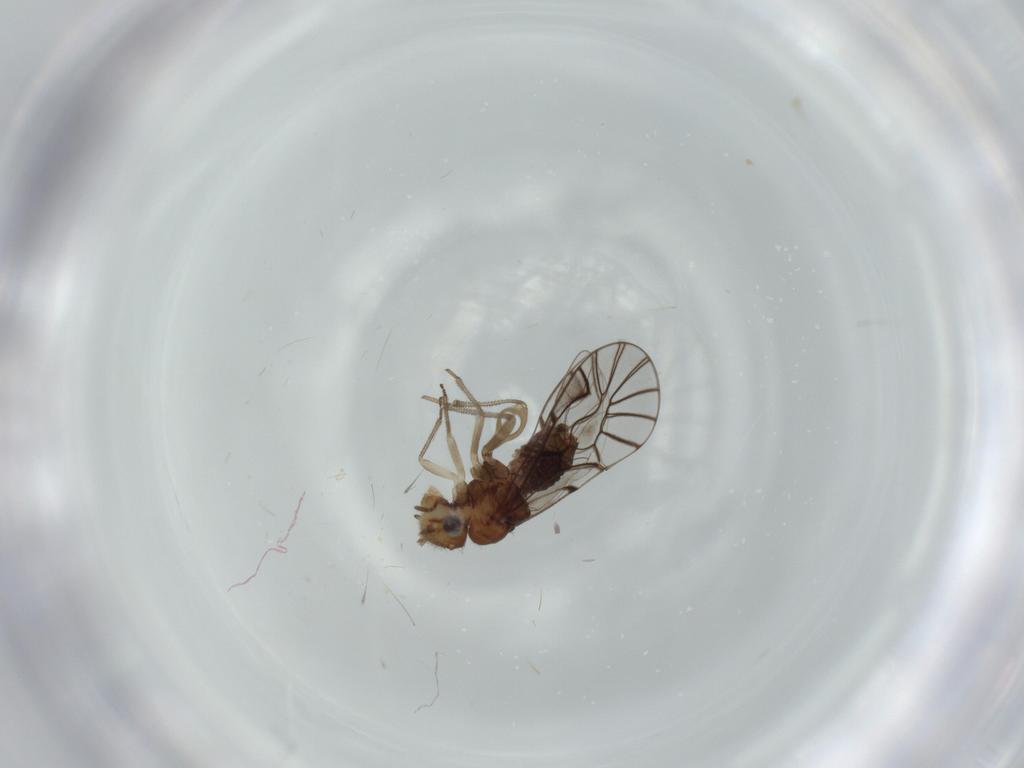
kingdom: Animalia
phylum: Arthropoda
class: Insecta
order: Psocodea
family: Amphipsocidae
